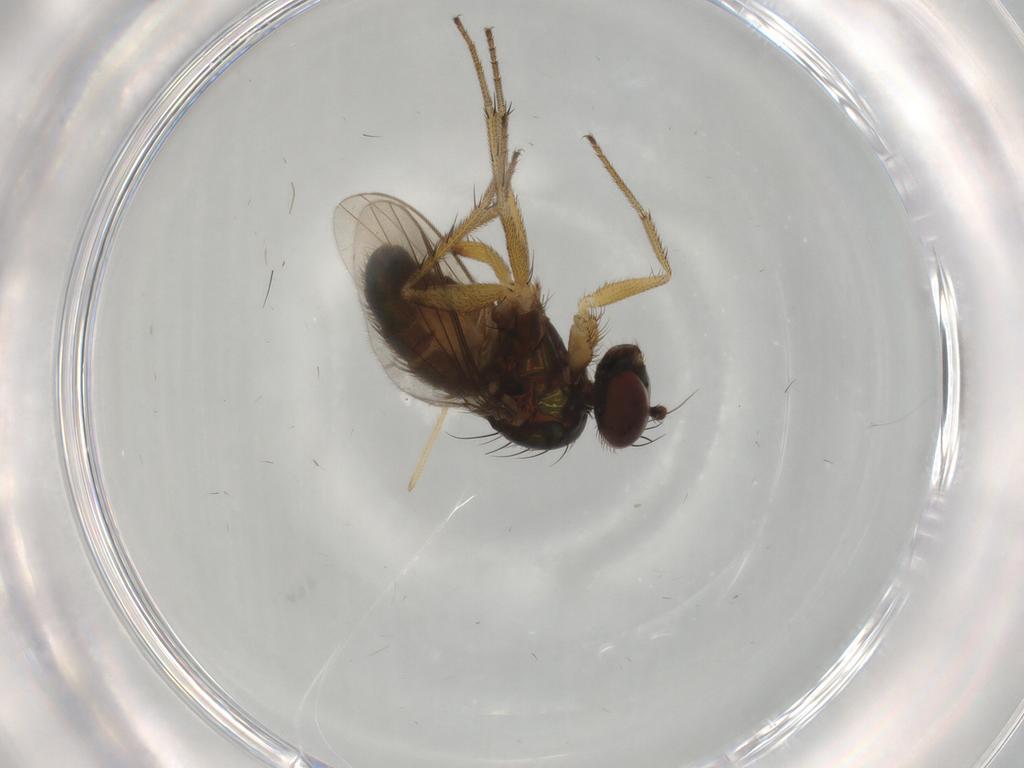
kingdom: Animalia
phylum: Arthropoda
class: Insecta
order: Diptera
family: Dolichopodidae
